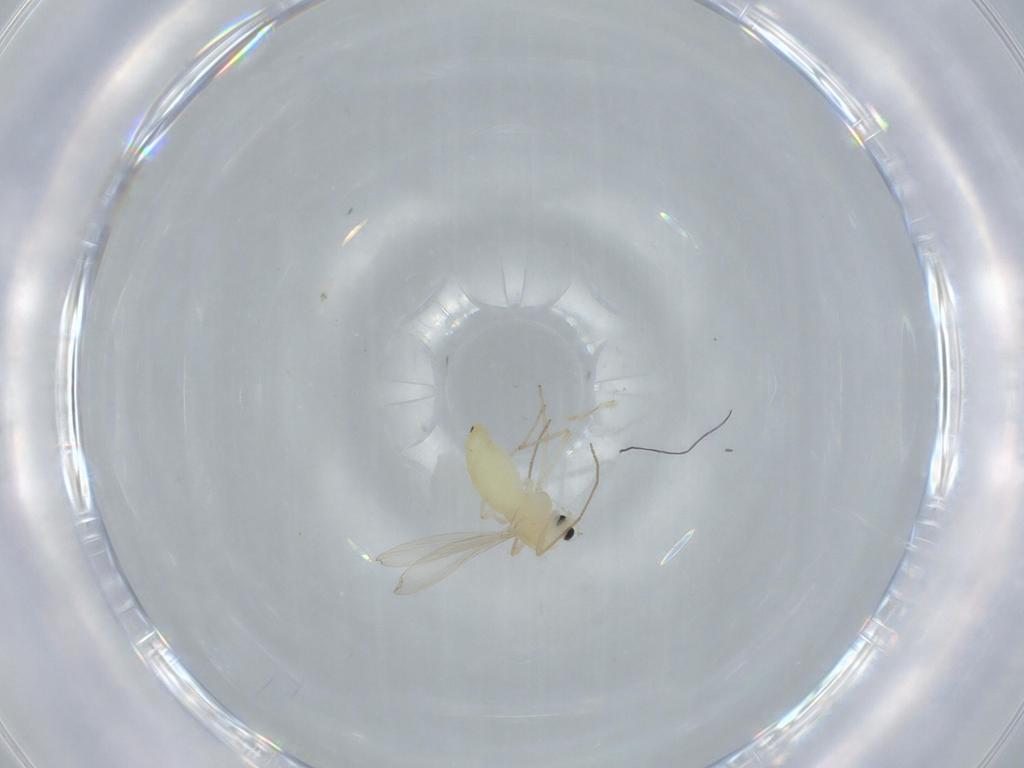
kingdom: Animalia
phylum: Arthropoda
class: Insecta
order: Diptera
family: Chironomidae
